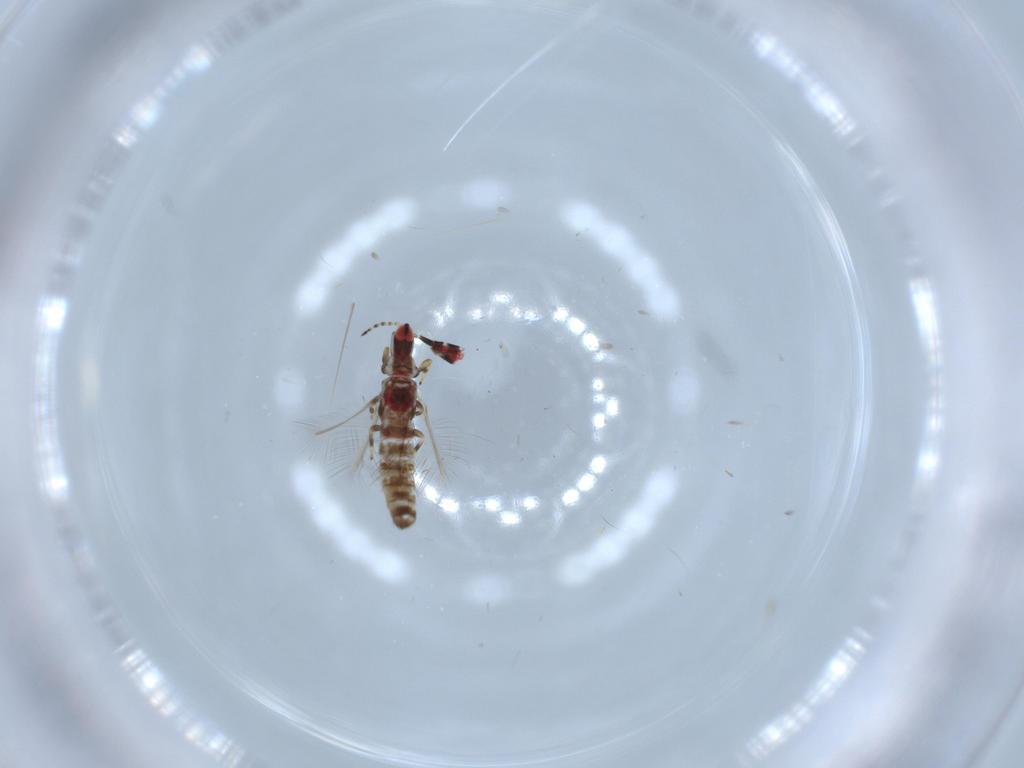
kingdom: Animalia
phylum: Arthropoda
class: Insecta
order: Thysanoptera
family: Phlaeothripidae
